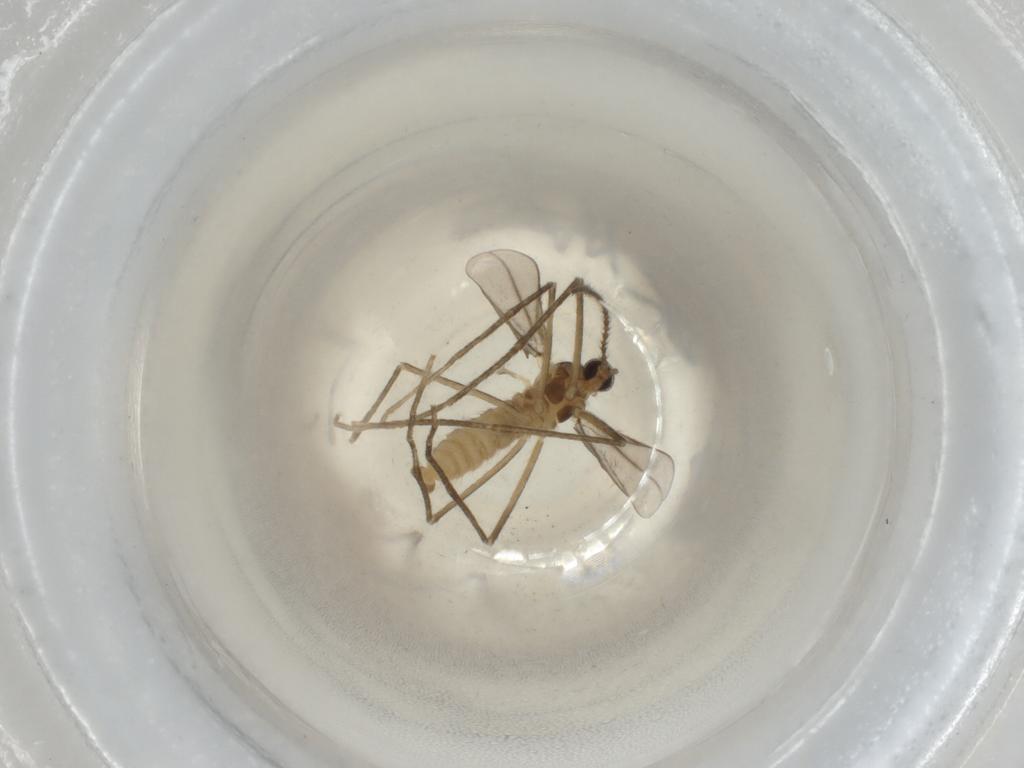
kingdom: Animalia
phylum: Arthropoda
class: Insecta
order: Diptera
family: Cecidomyiidae
